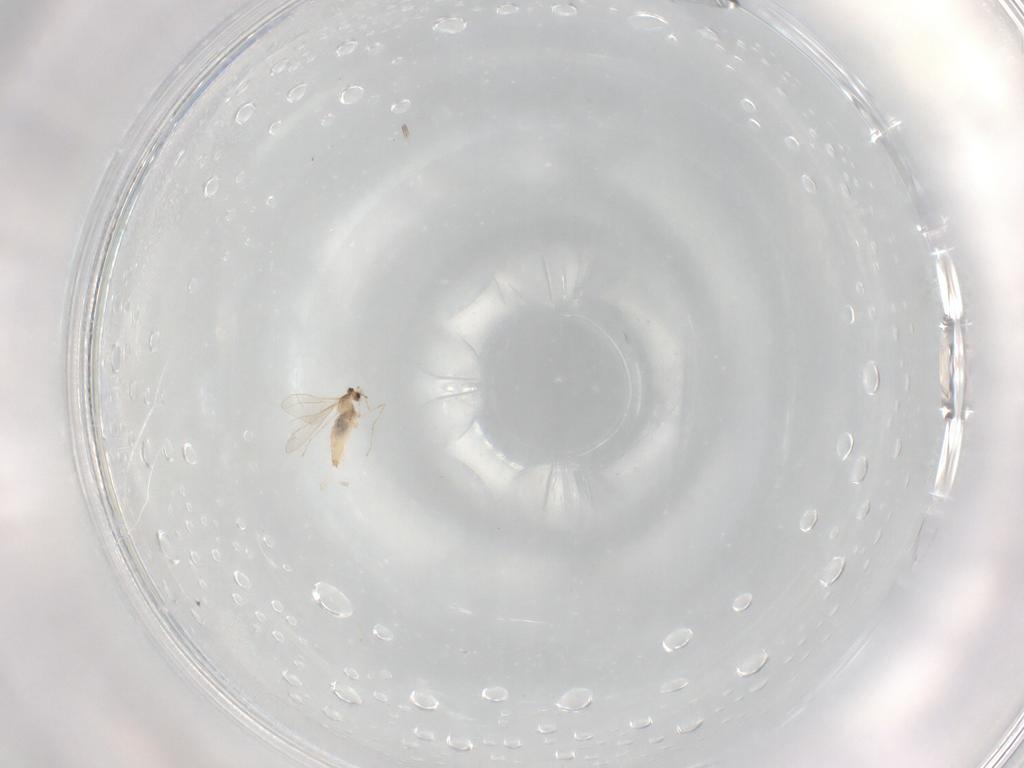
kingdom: Animalia
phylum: Arthropoda
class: Insecta
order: Diptera
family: Cecidomyiidae
